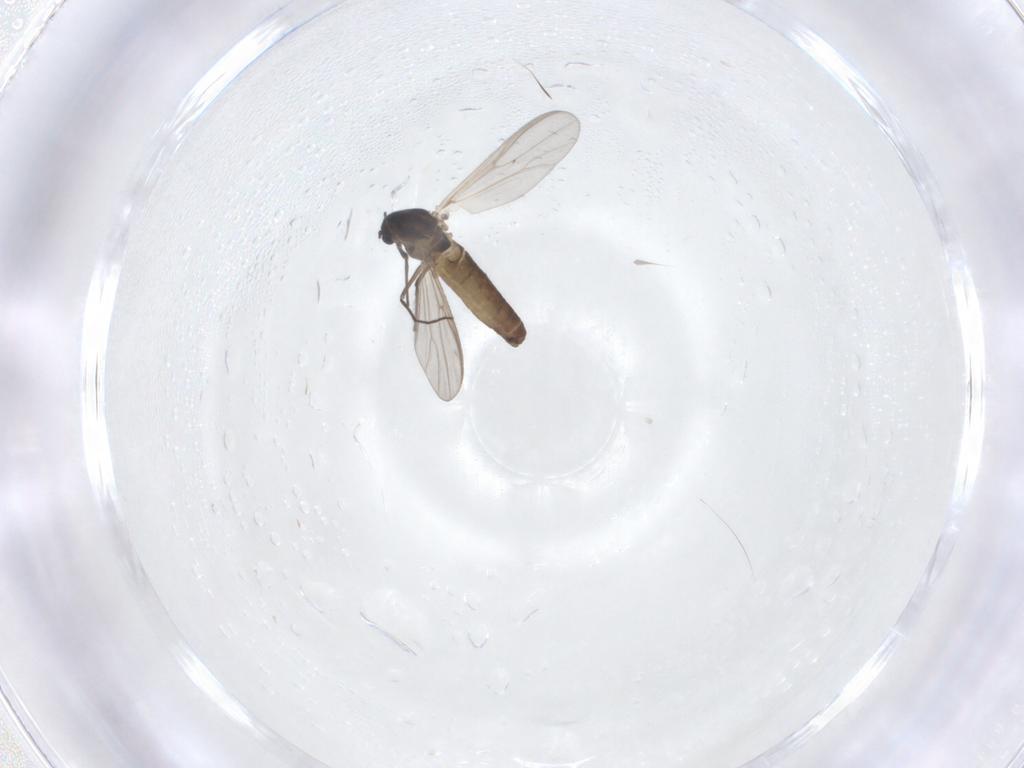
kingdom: Animalia
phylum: Arthropoda
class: Insecta
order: Diptera
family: Chironomidae
